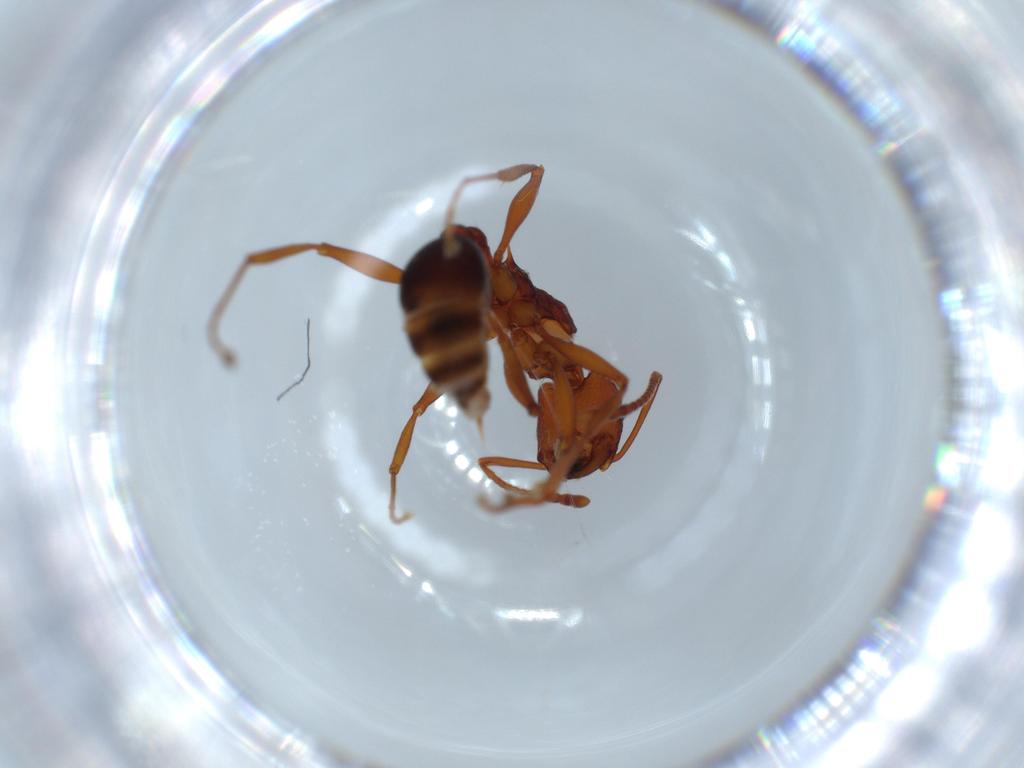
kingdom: Animalia
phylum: Arthropoda
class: Insecta
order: Hymenoptera
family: Formicidae
